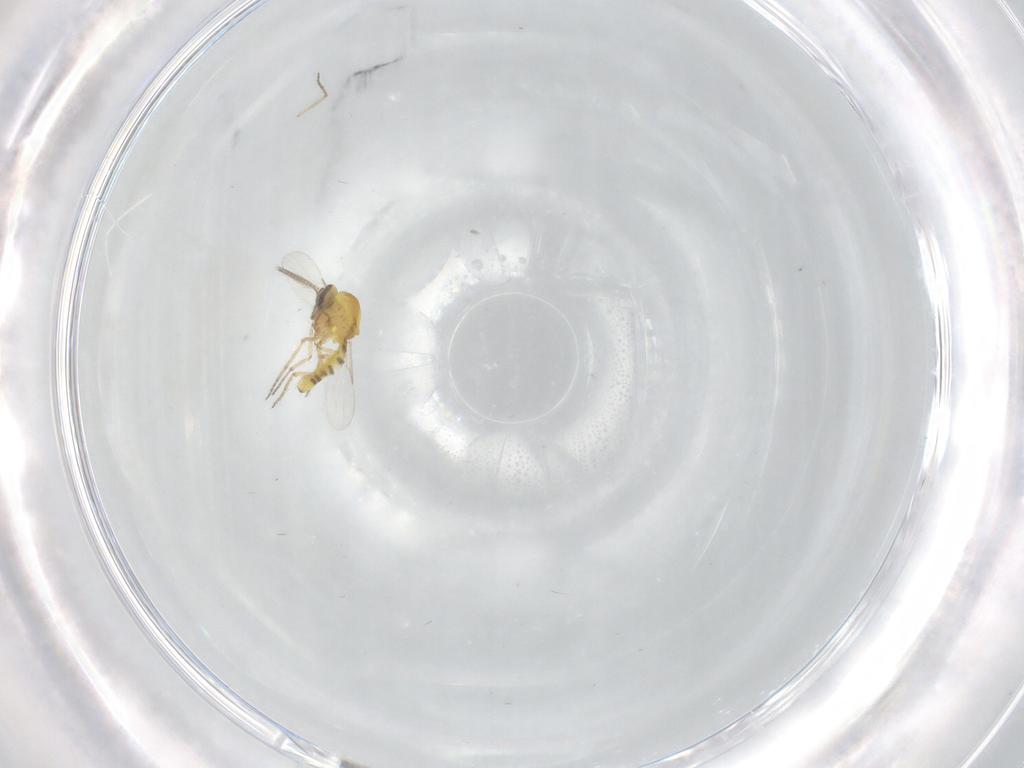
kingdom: Animalia
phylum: Arthropoda
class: Insecta
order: Diptera
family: Ceratopogonidae
